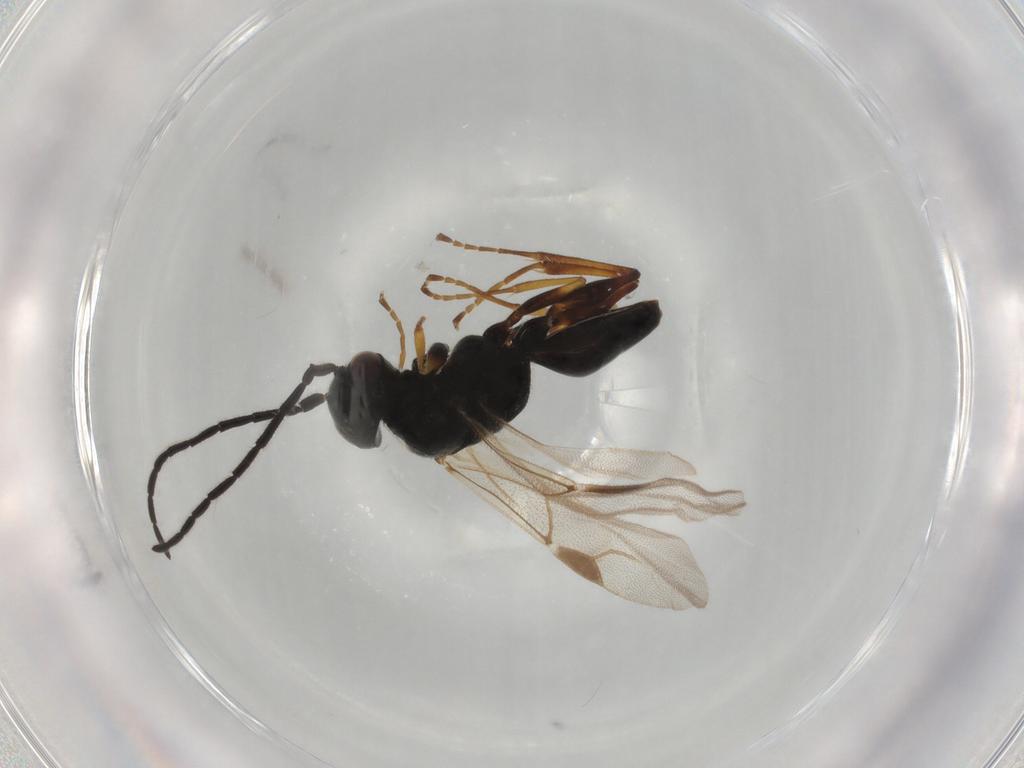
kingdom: Animalia
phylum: Arthropoda
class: Insecta
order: Hymenoptera
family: Dryinidae
